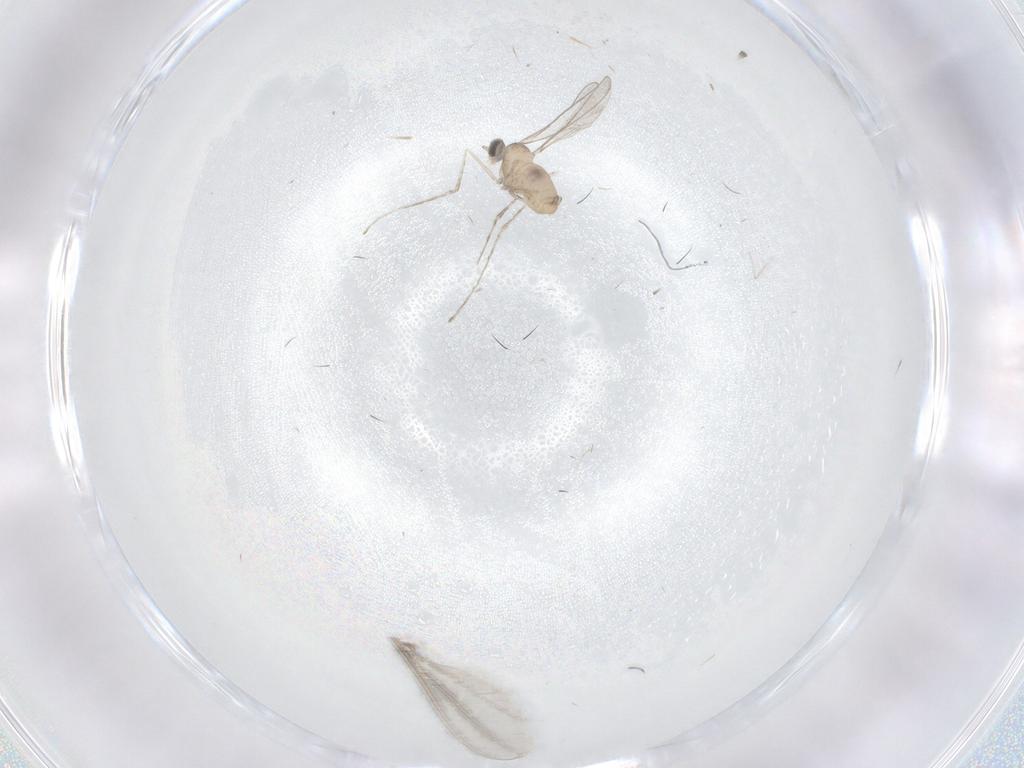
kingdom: Animalia
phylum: Arthropoda
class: Insecta
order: Diptera
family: Cecidomyiidae
